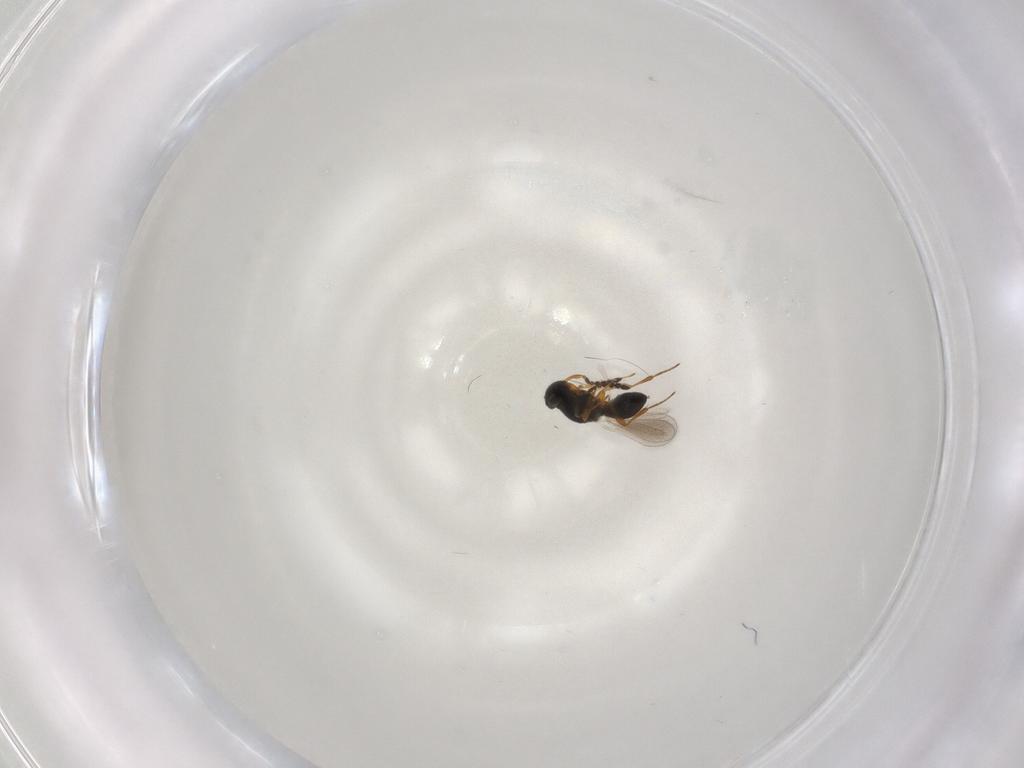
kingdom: Animalia
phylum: Arthropoda
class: Insecta
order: Hymenoptera
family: Platygastridae
